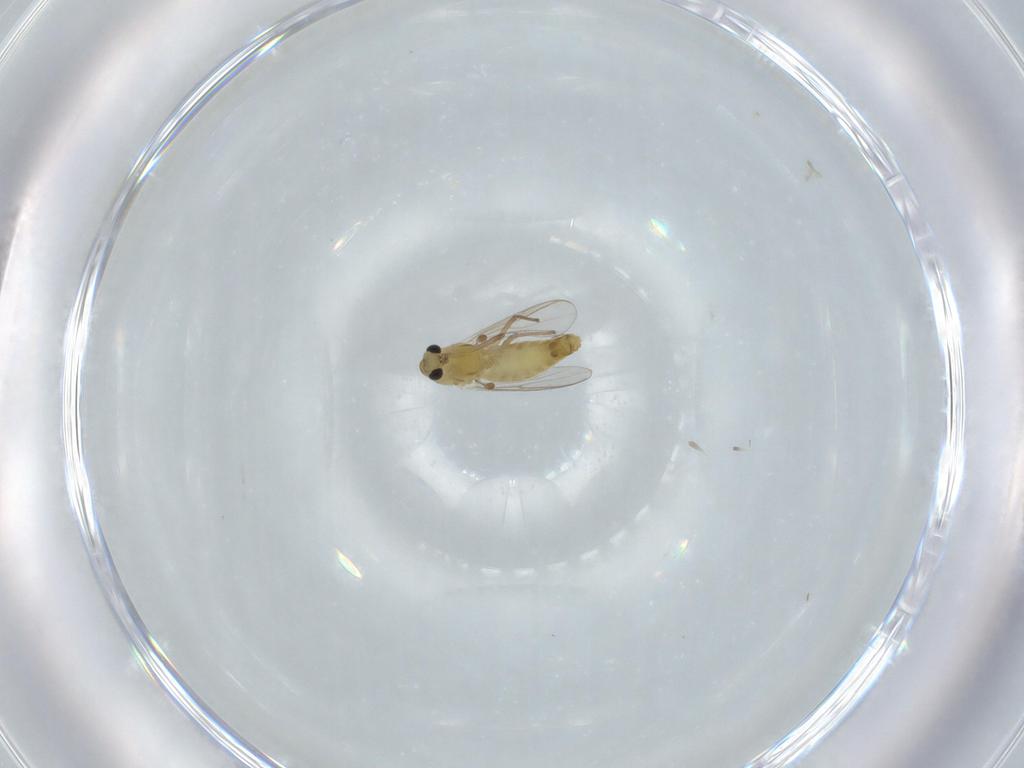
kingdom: Animalia
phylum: Arthropoda
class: Insecta
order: Diptera
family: Chironomidae
